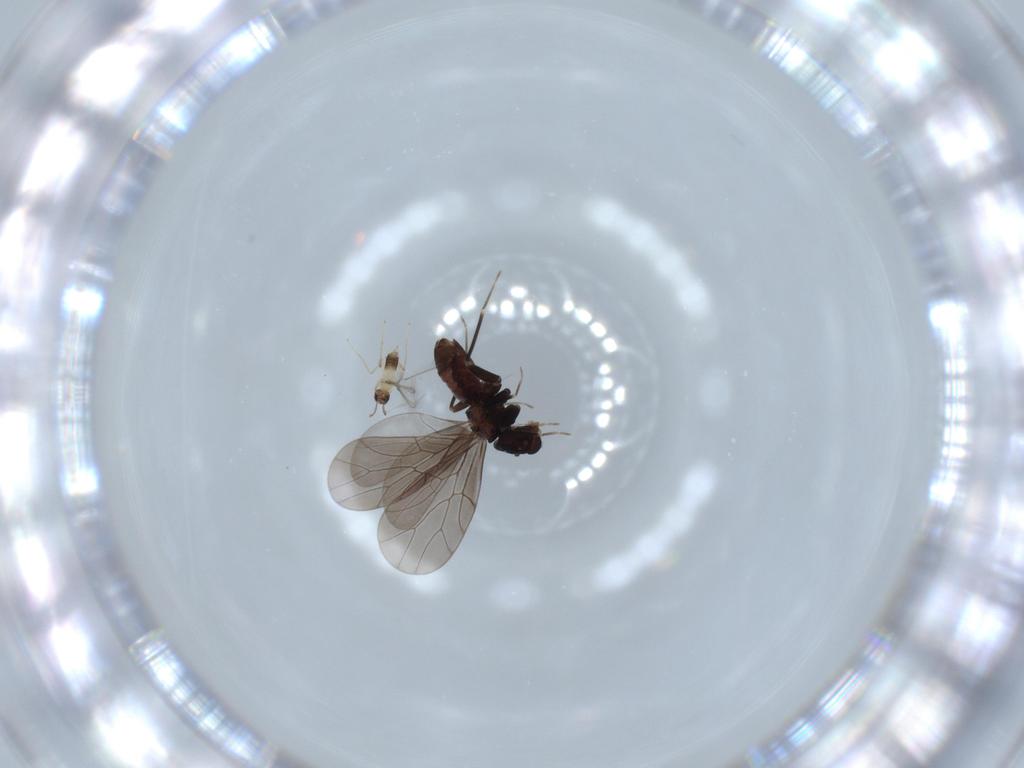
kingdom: Animalia
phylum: Arthropoda
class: Insecta
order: Psocodea
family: Lepidopsocidae
